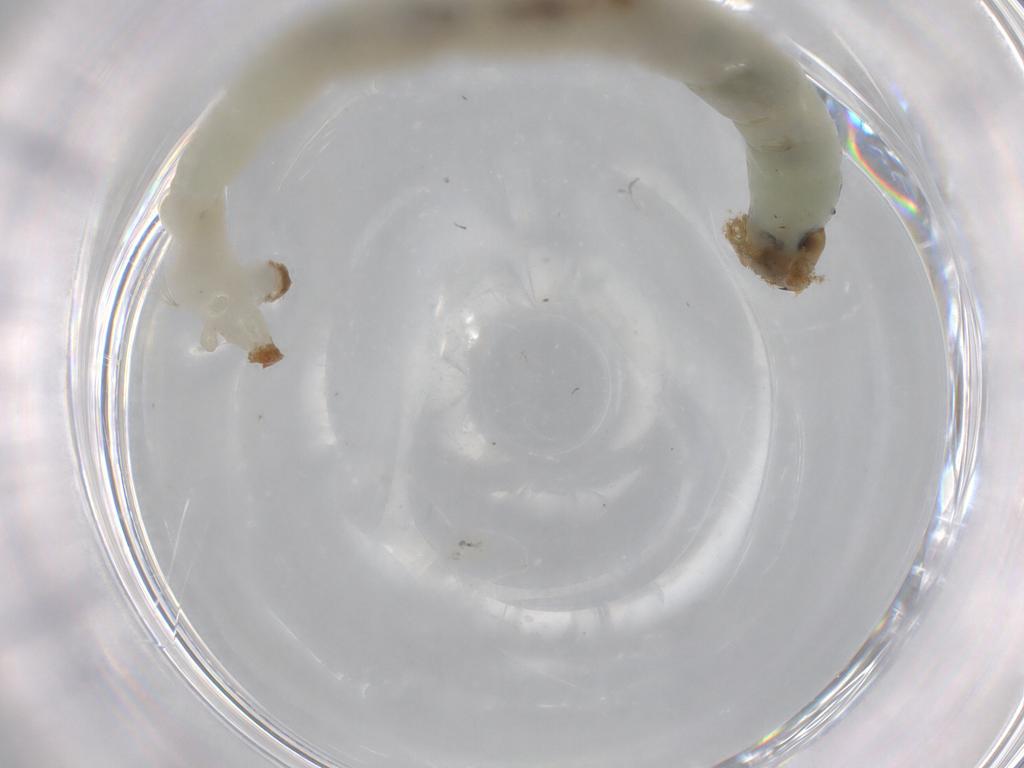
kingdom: Animalia
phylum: Arthropoda
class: Insecta
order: Diptera
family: Chironomidae
